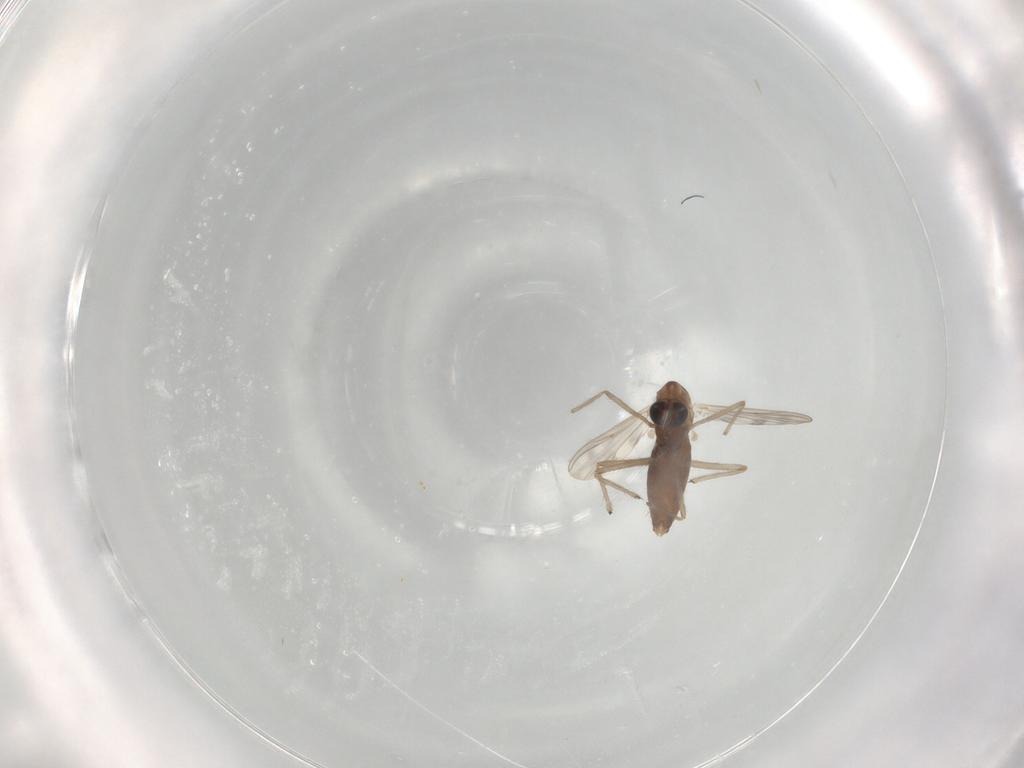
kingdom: Animalia
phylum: Arthropoda
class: Insecta
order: Diptera
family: Chironomidae
